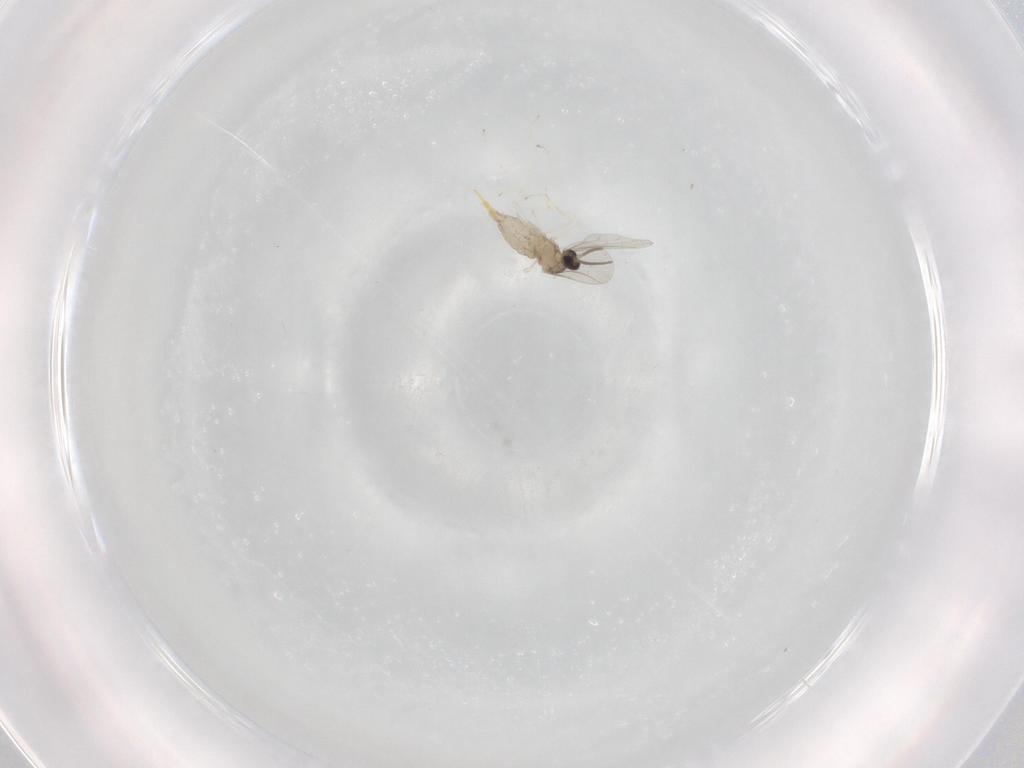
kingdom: Animalia
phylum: Arthropoda
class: Insecta
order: Diptera
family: Cecidomyiidae
